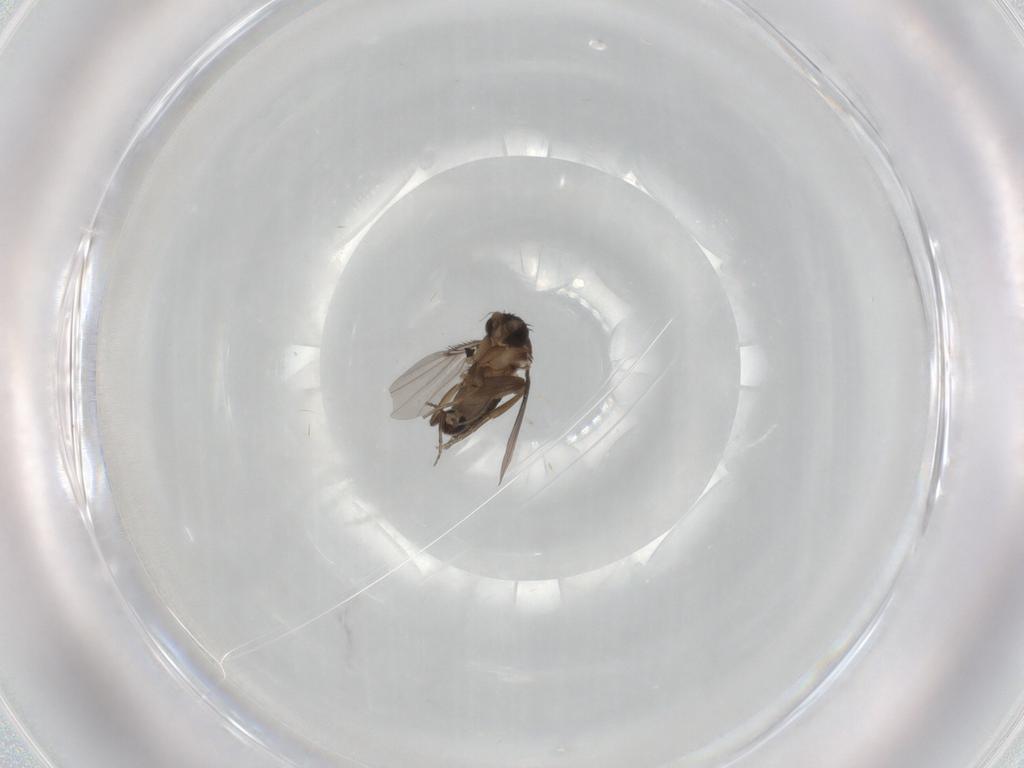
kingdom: Animalia
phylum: Arthropoda
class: Insecta
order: Diptera
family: Phoridae
